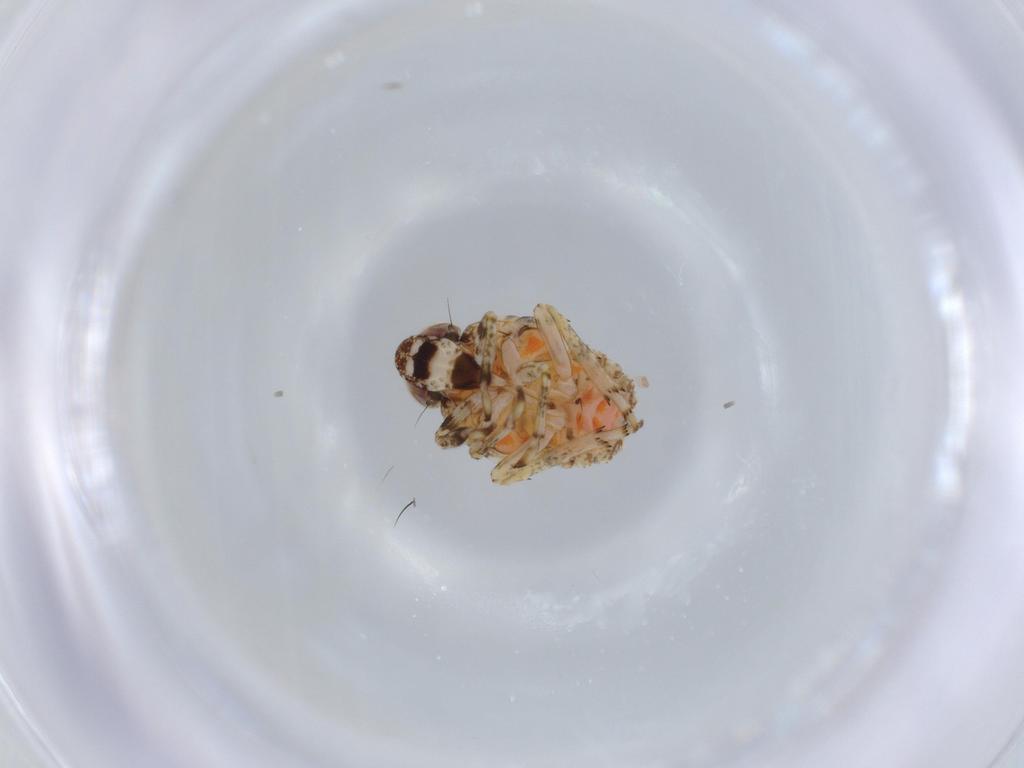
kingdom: Animalia
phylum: Arthropoda
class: Insecta
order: Hemiptera
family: Issidae
